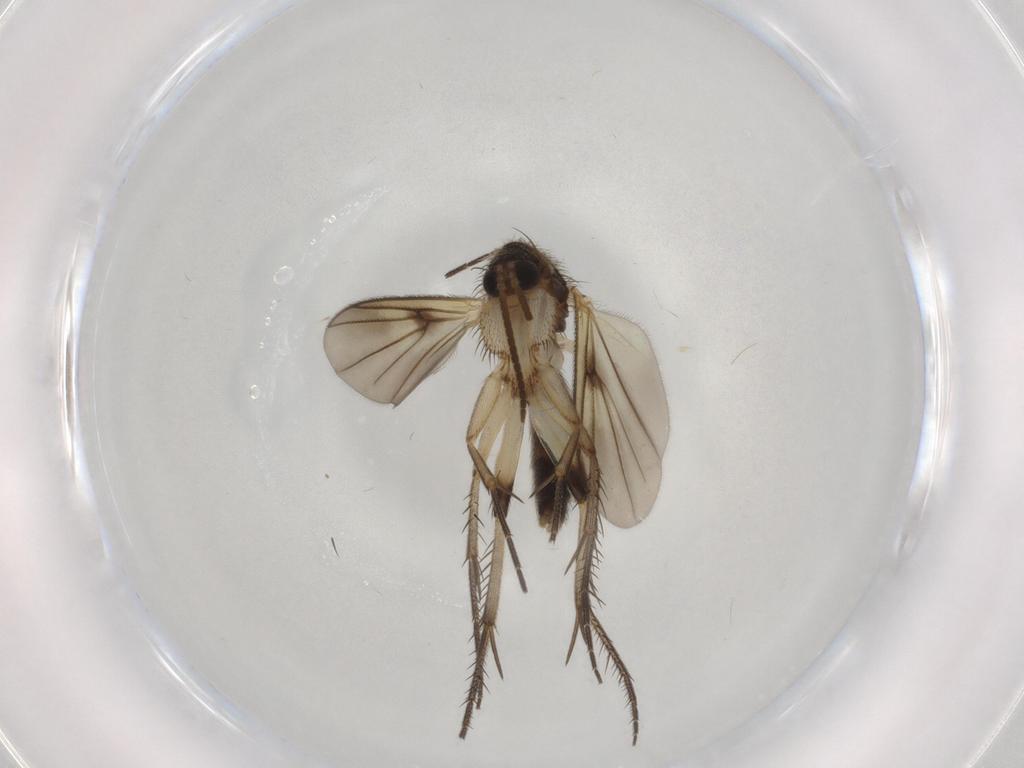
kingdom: Animalia
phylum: Arthropoda
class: Insecta
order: Diptera
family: Mycetophilidae
